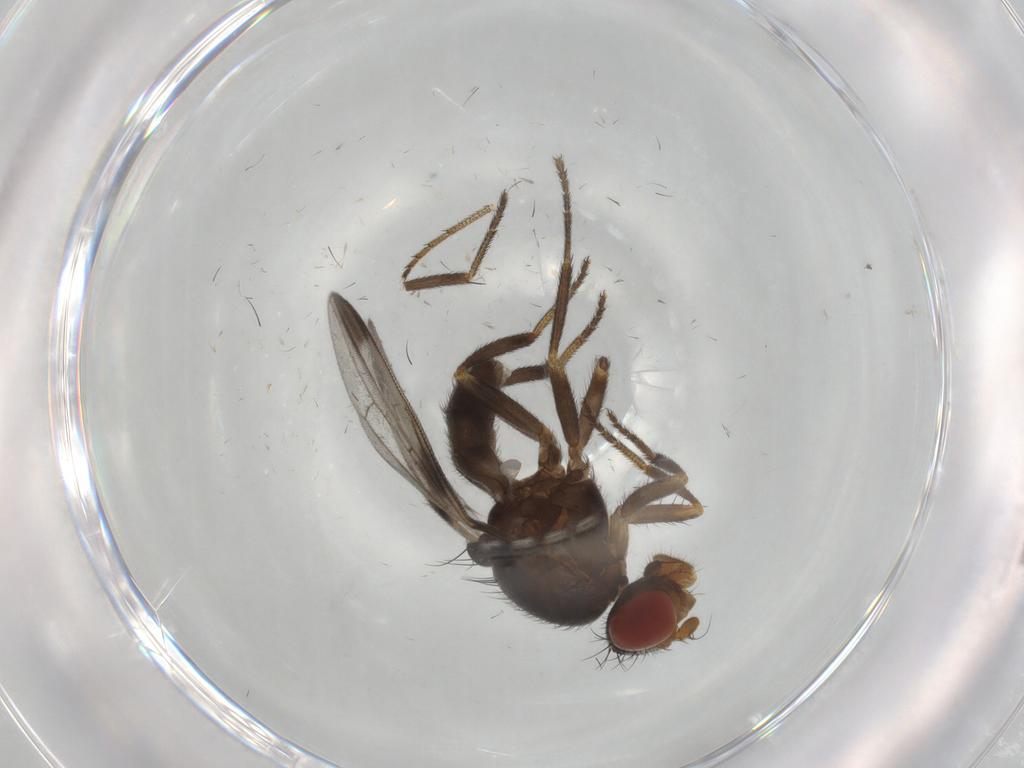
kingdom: Animalia
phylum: Arthropoda
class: Insecta
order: Diptera
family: Ulidiidae
